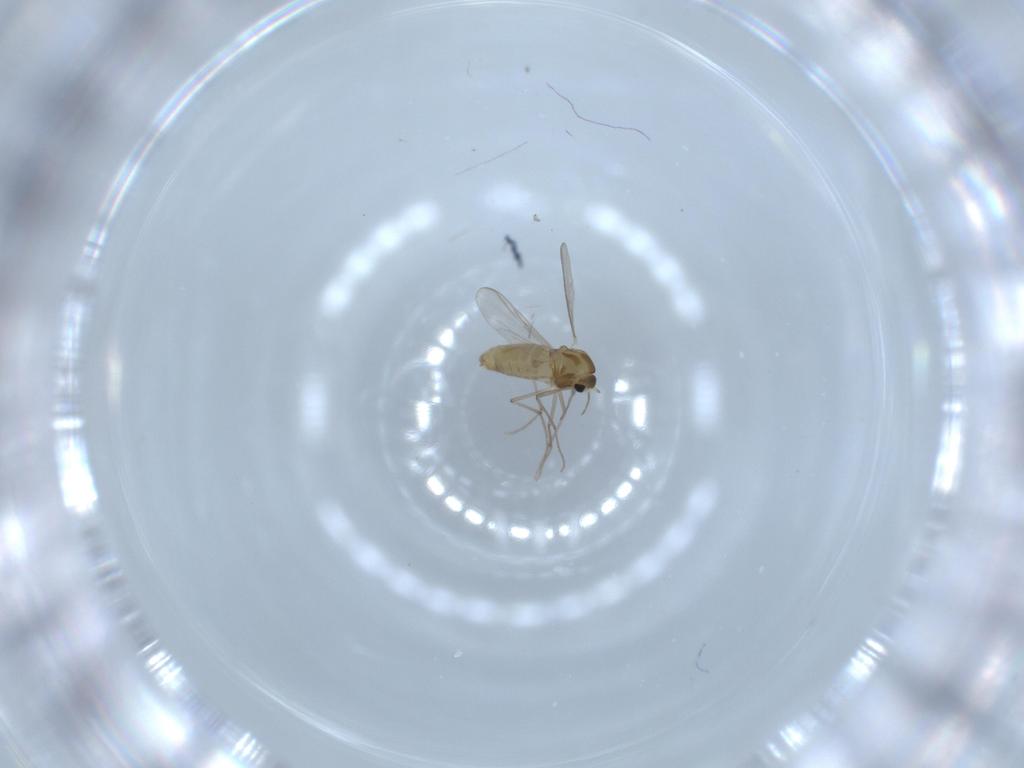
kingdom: Animalia
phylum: Arthropoda
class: Insecta
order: Diptera
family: Chironomidae
